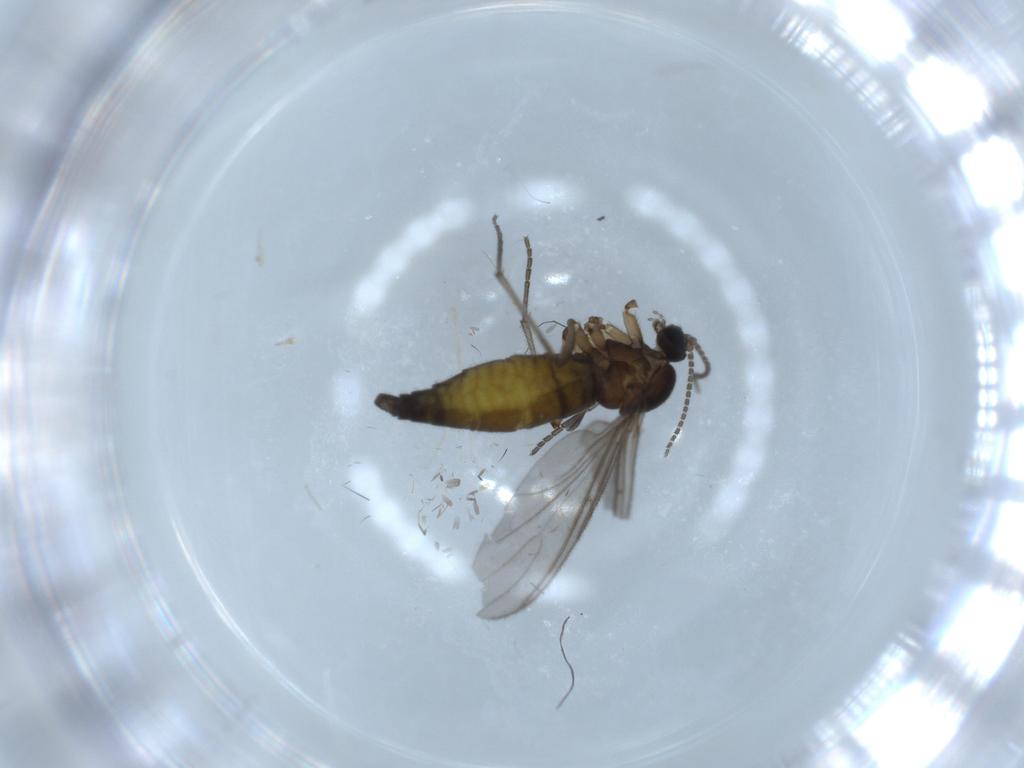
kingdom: Animalia
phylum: Arthropoda
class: Insecta
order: Diptera
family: Sciaridae
